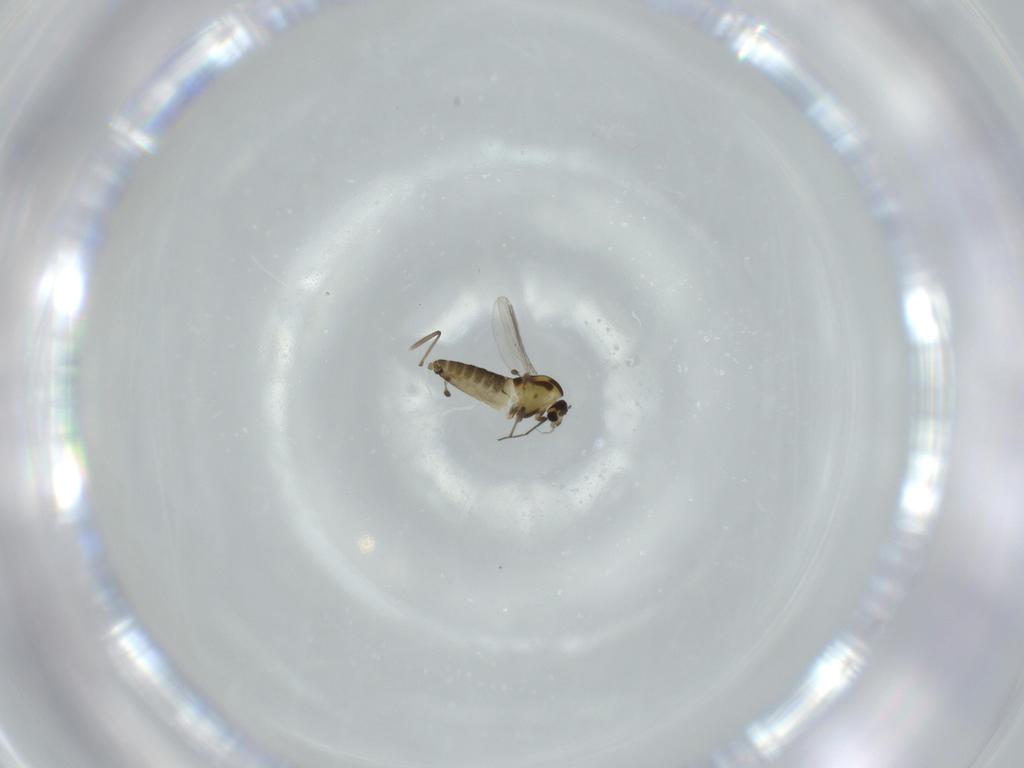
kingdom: Animalia
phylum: Arthropoda
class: Insecta
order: Diptera
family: Chironomidae
